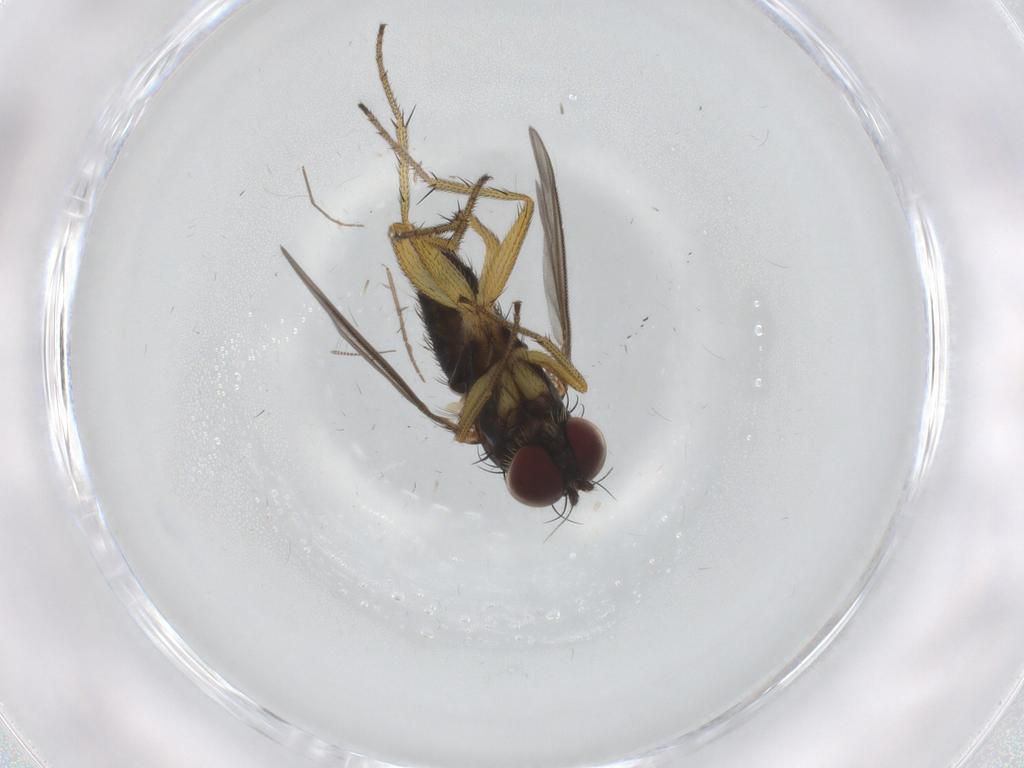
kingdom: Animalia
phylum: Arthropoda
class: Insecta
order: Diptera
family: Dolichopodidae
